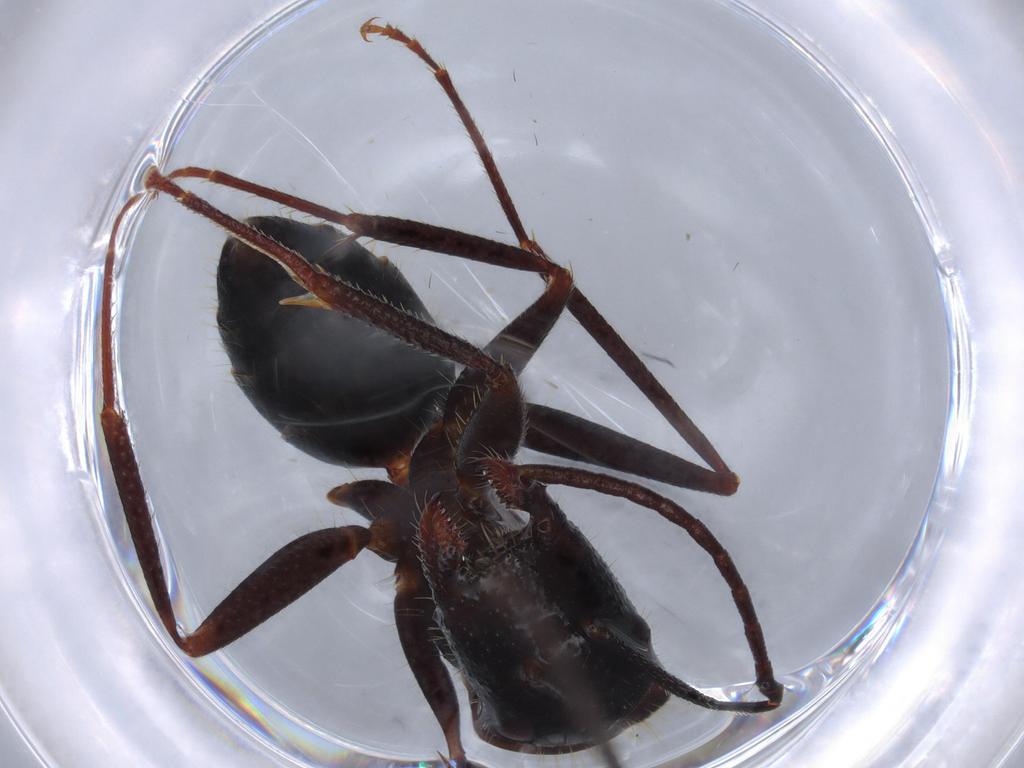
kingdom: Animalia
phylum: Arthropoda
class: Insecta
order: Hymenoptera
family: Formicidae
